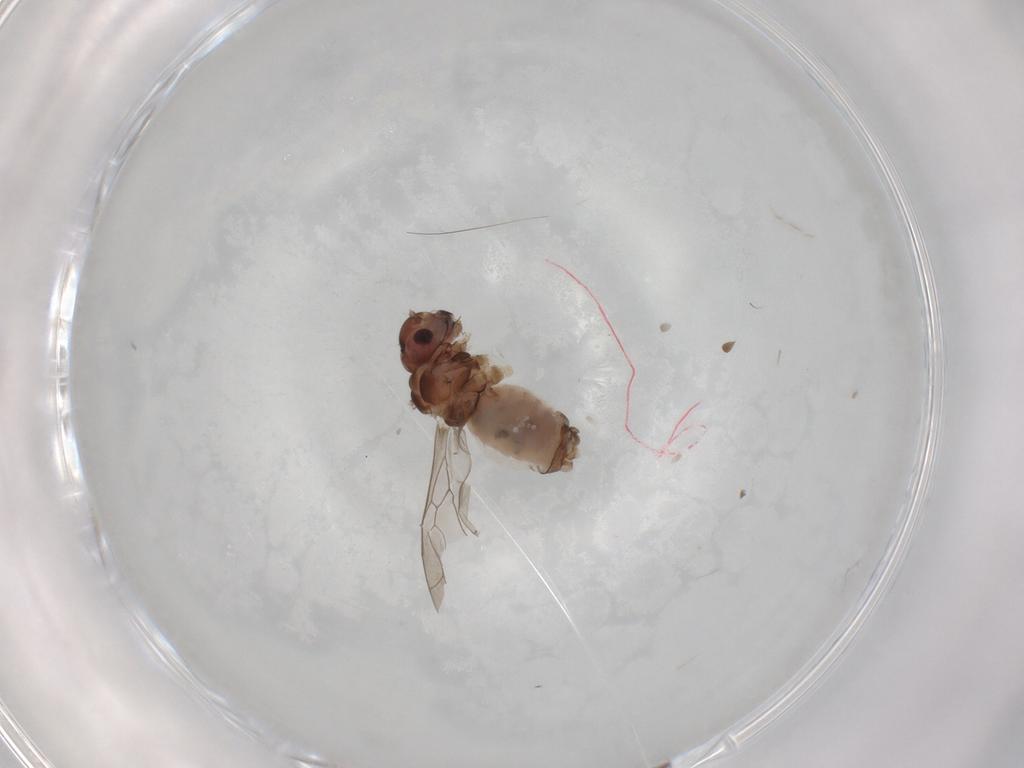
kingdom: Animalia
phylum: Arthropoda
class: Insecta
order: Psocodea
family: Peripsocidae
